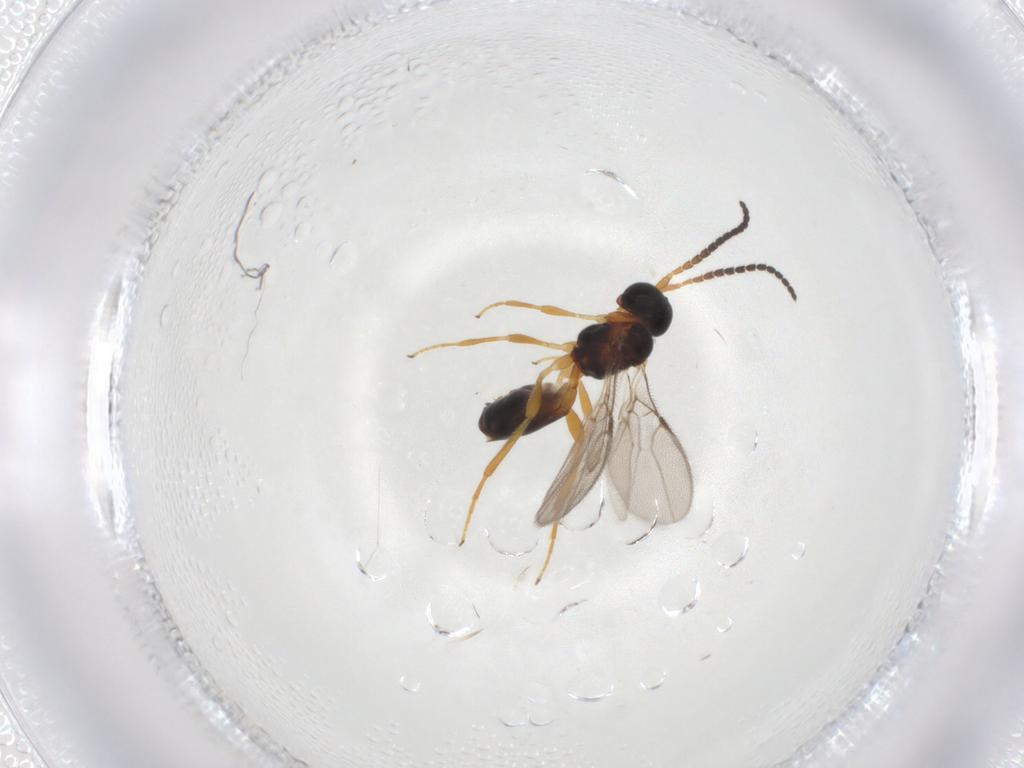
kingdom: Animalia
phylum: Arthropoda
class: Insecta
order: Hymenoptera
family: Braconidae
